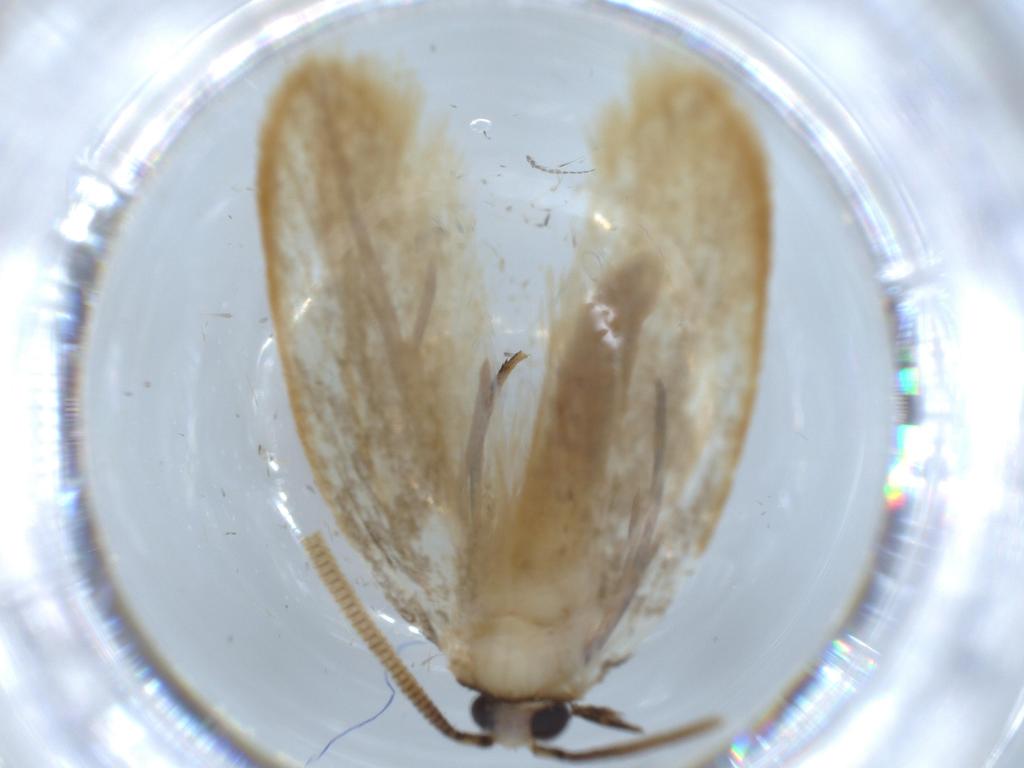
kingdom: Animalia
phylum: Arthropoda
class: Insecta
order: Lepidoptera
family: Tineidae
